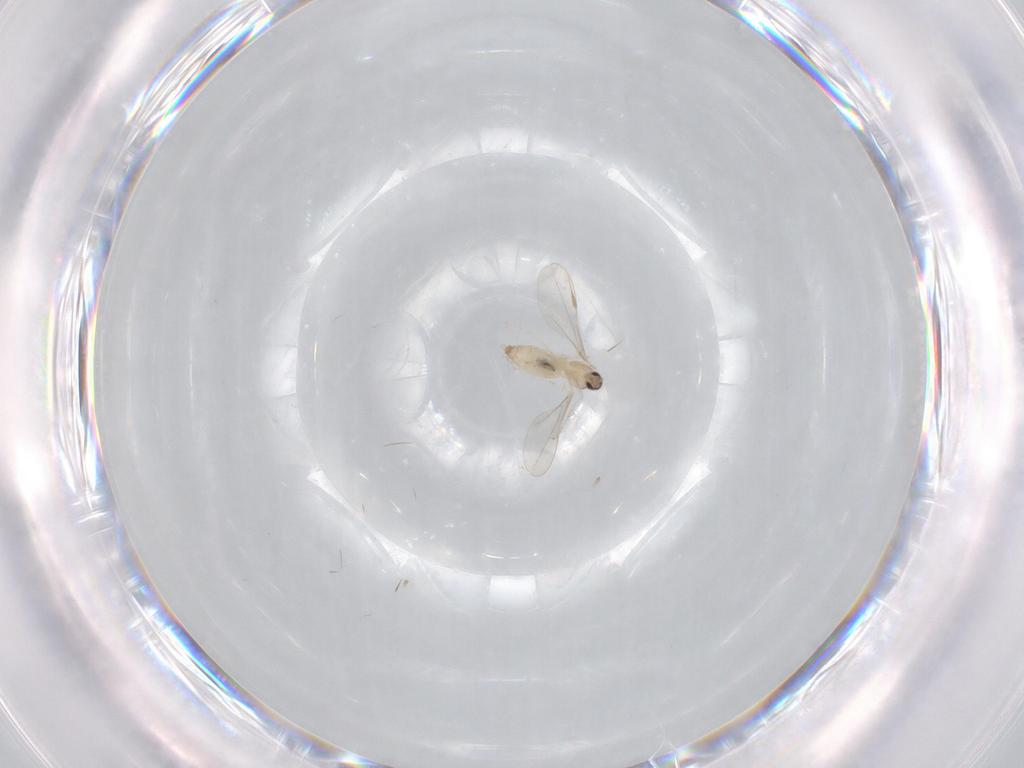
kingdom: Animalia
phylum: Arthropoda
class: Insecta
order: Diptera
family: Cecidomyiidae
